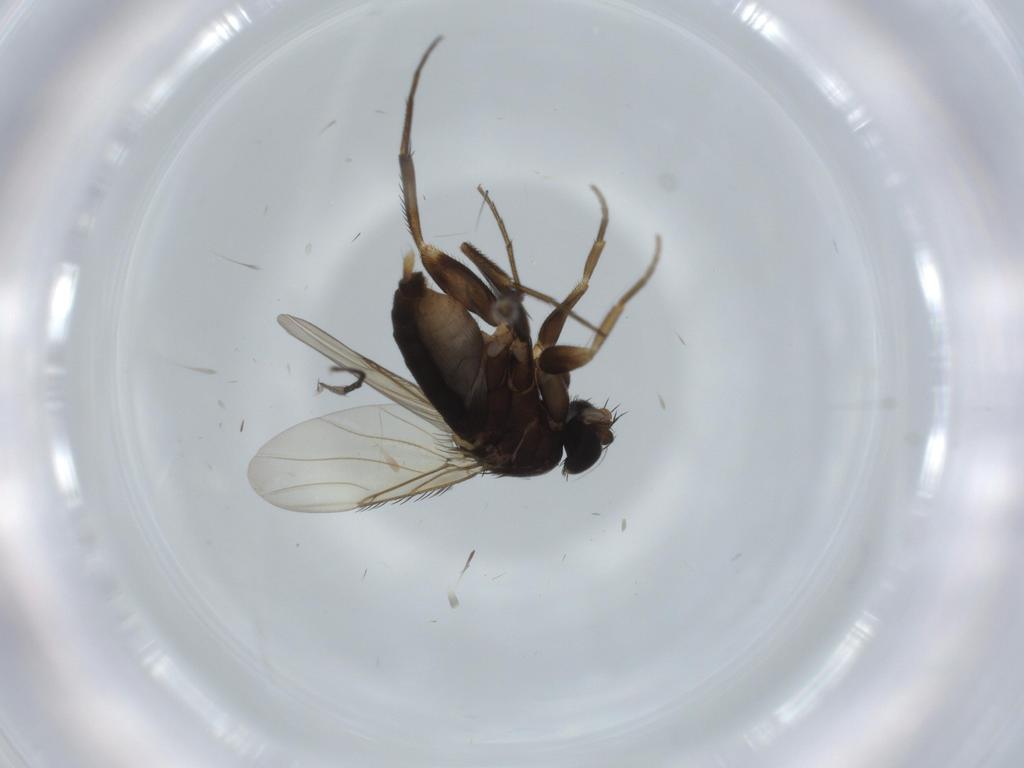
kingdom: Animalia
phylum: Arthropoda
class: Insecta
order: Diptera
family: Phoridae
